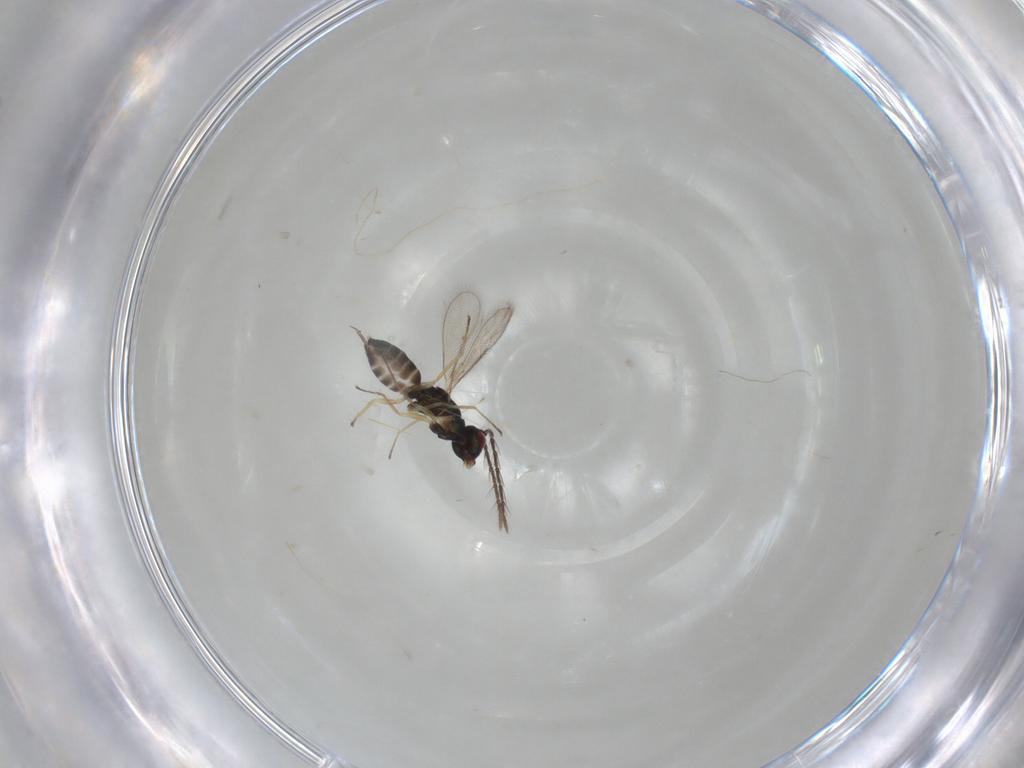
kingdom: Animalia
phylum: Arthropoda
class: Insecta
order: Hymenoptera
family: Eulophidae
